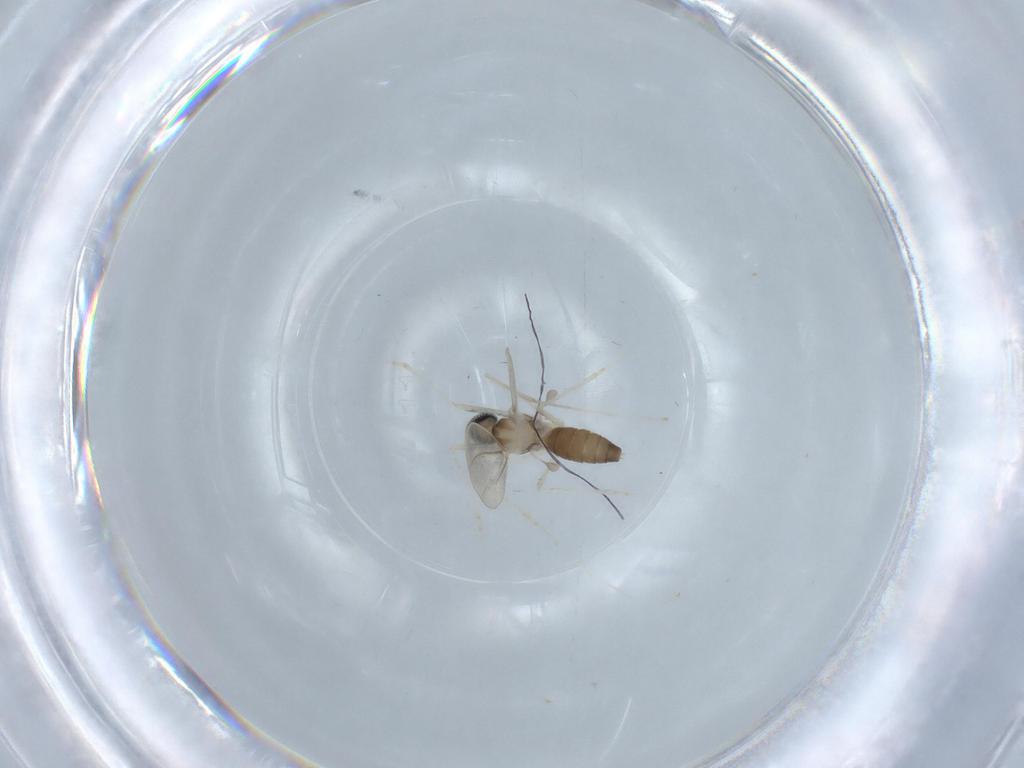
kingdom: Animalia
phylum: Arthropoda
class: Insecta
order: Diptera
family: Cecidomyiidae
